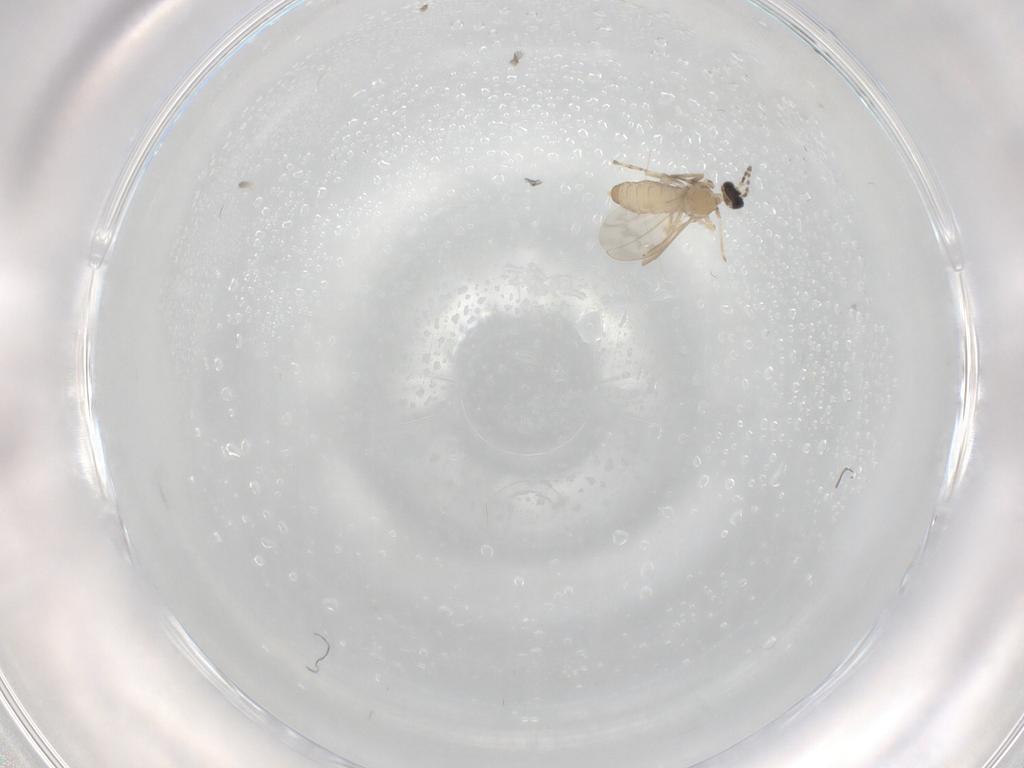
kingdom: Animalia
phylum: Arthropoda
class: Insecta
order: Diptera
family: Cecidomyiidae
